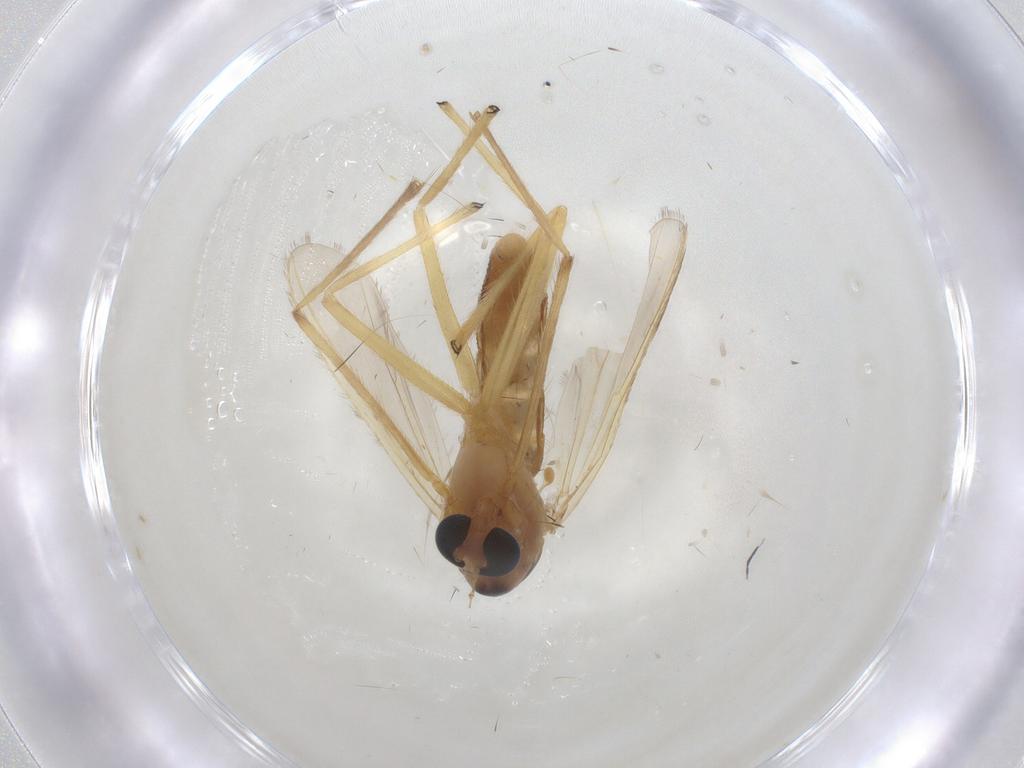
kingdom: Animalia
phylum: Arthropoda
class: Insecta
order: Diptera
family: Chironomidae
